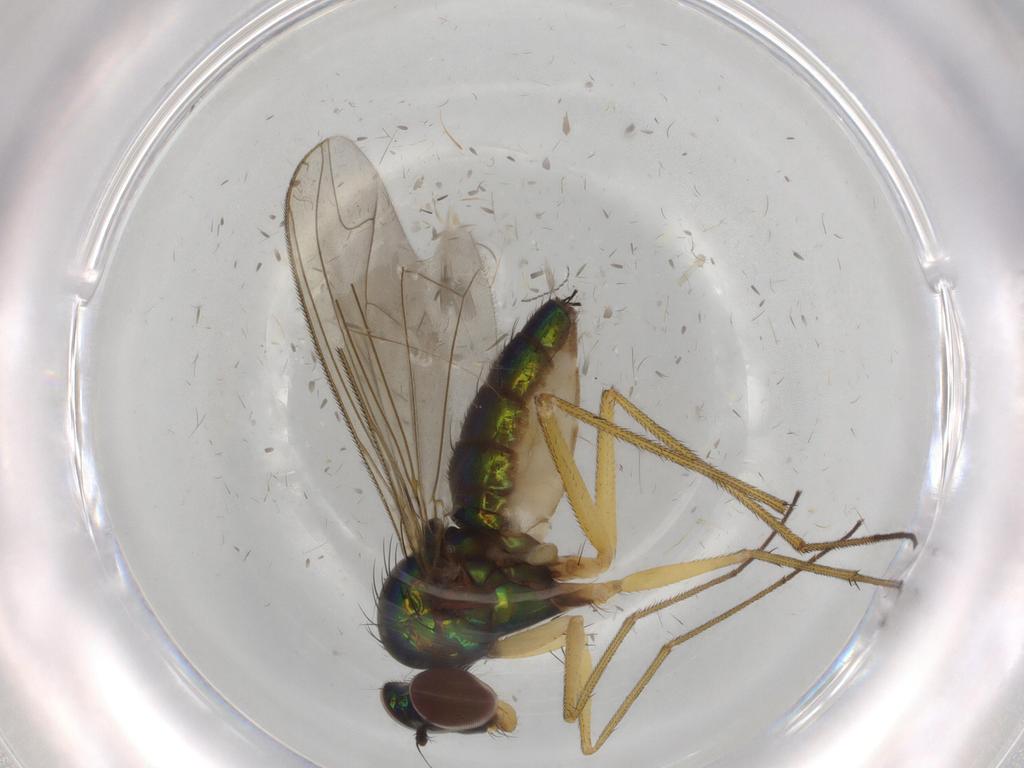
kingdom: Animalia
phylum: Arthropoda
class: Insecta
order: Diptera
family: Dolichopodidae
